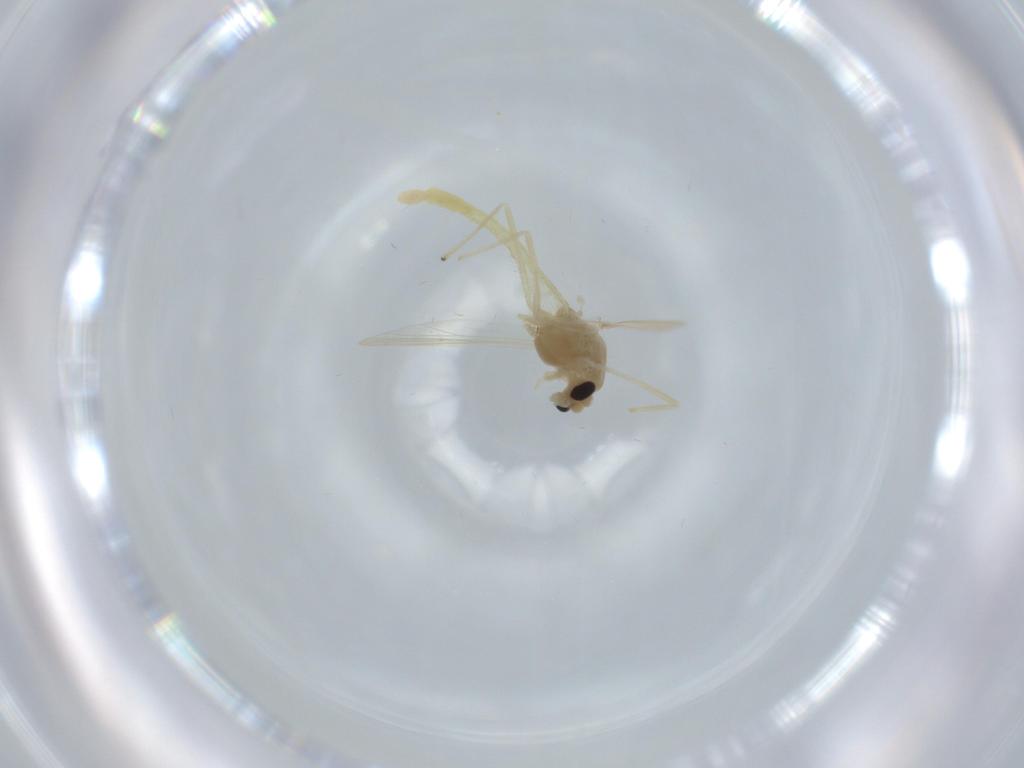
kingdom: Animalia
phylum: Arthropoda
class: Insecta
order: Diptera
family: Chironomidae
